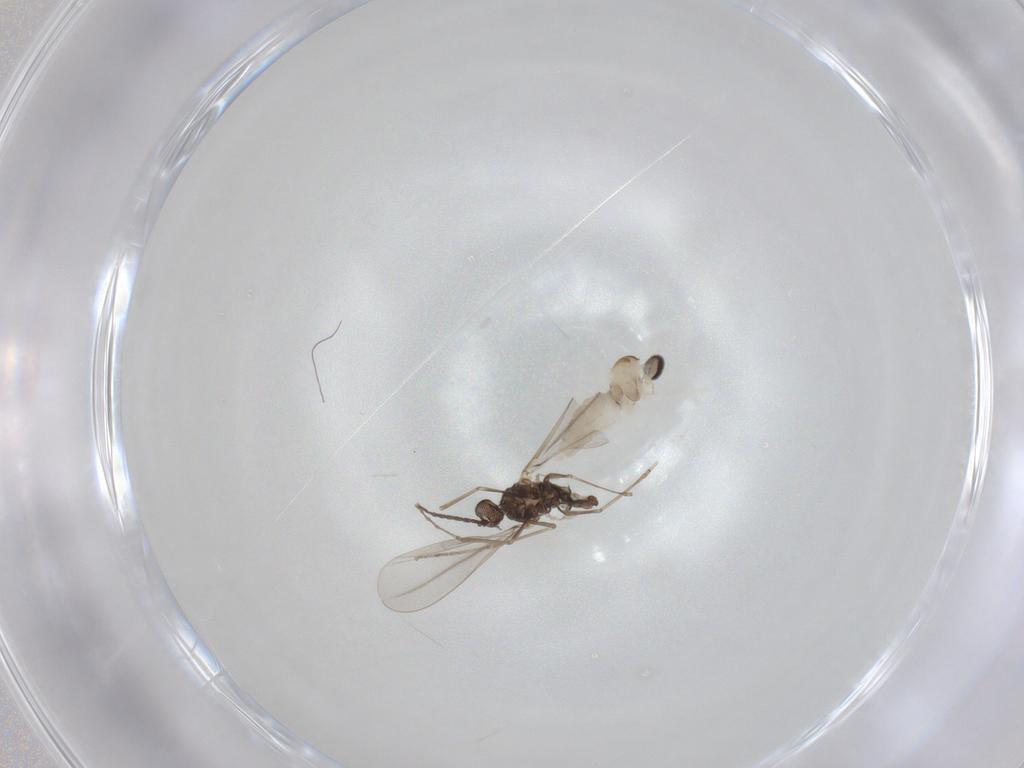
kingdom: Animalia
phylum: Arthropoda
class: Insecta
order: Diptera
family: Cecidomyiidae
